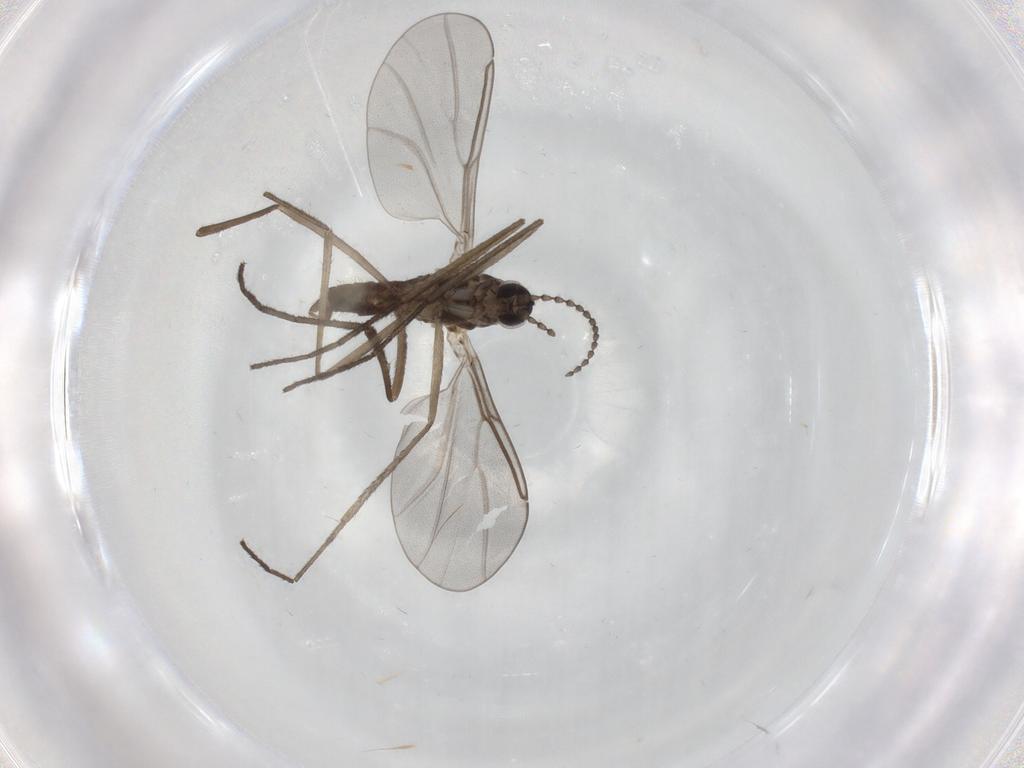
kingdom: Animalia
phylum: Arthropoda
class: Insecta
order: Diptera
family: Cecidomyiidae
